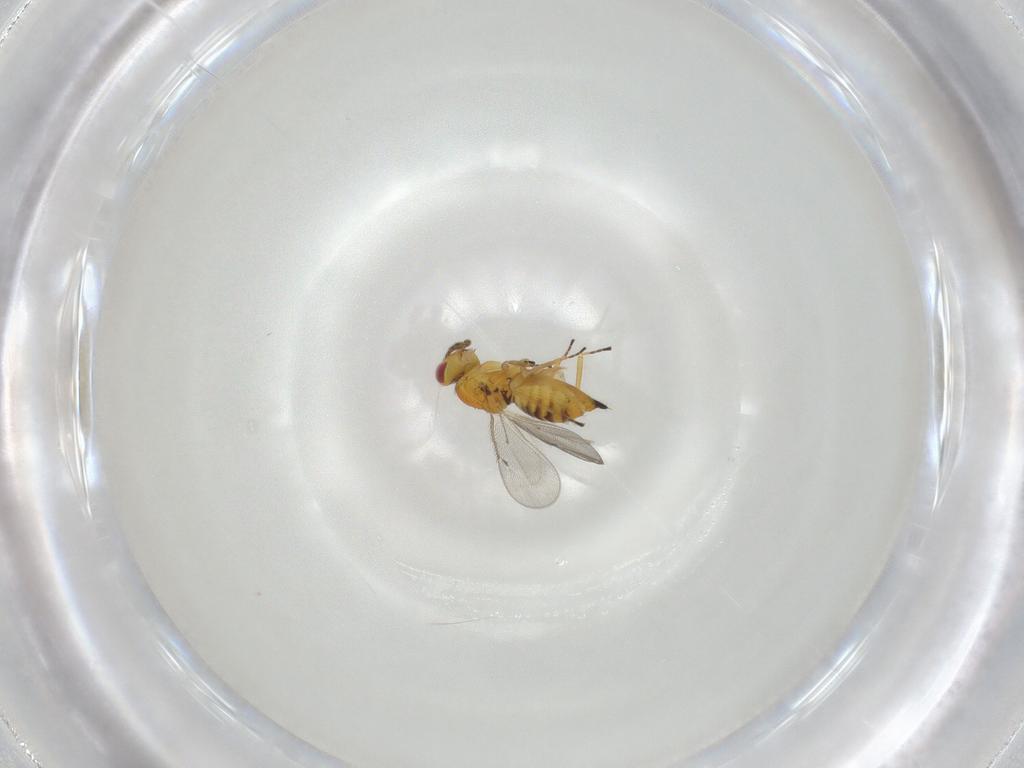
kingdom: Animalia
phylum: Arthropoda
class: Insecta
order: Hymenoptera
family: Eulophidae
